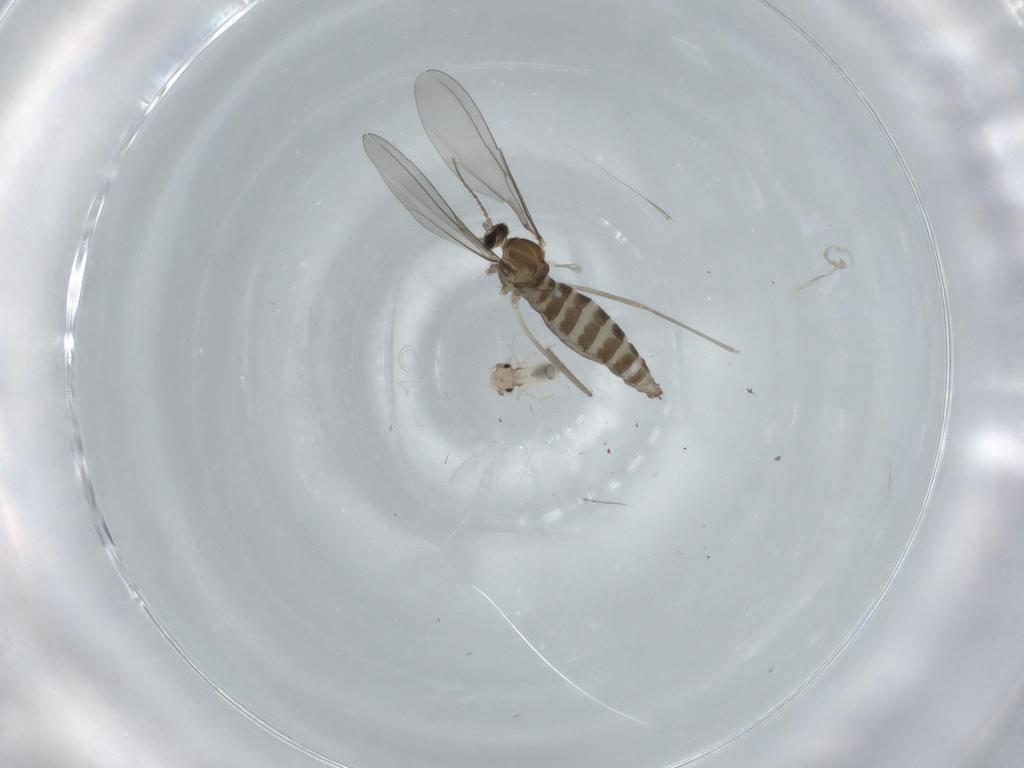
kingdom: Animalia
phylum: Arthropoda
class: Insecta
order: Diptera
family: Cecidomyiidae
